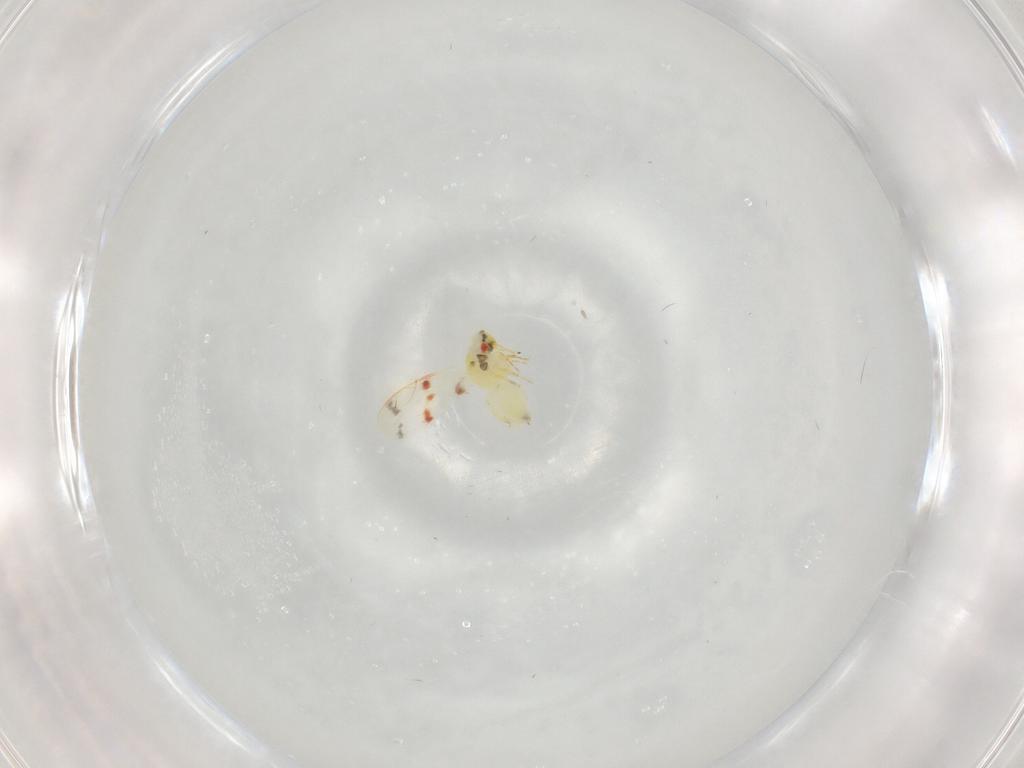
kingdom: Animalia
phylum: Arthropoda
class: Insecta
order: Hemiptera
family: Aleyrodidae
